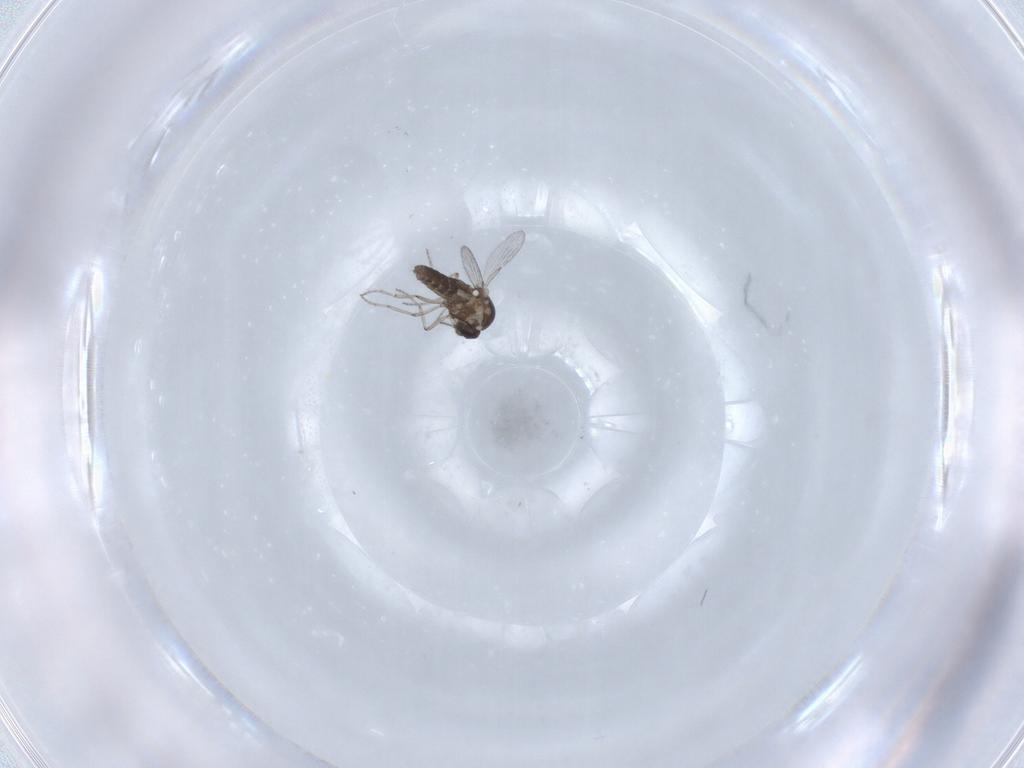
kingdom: Animalia
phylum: Arthropoda
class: Insecta
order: Diptera
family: Ceratopogonidae
